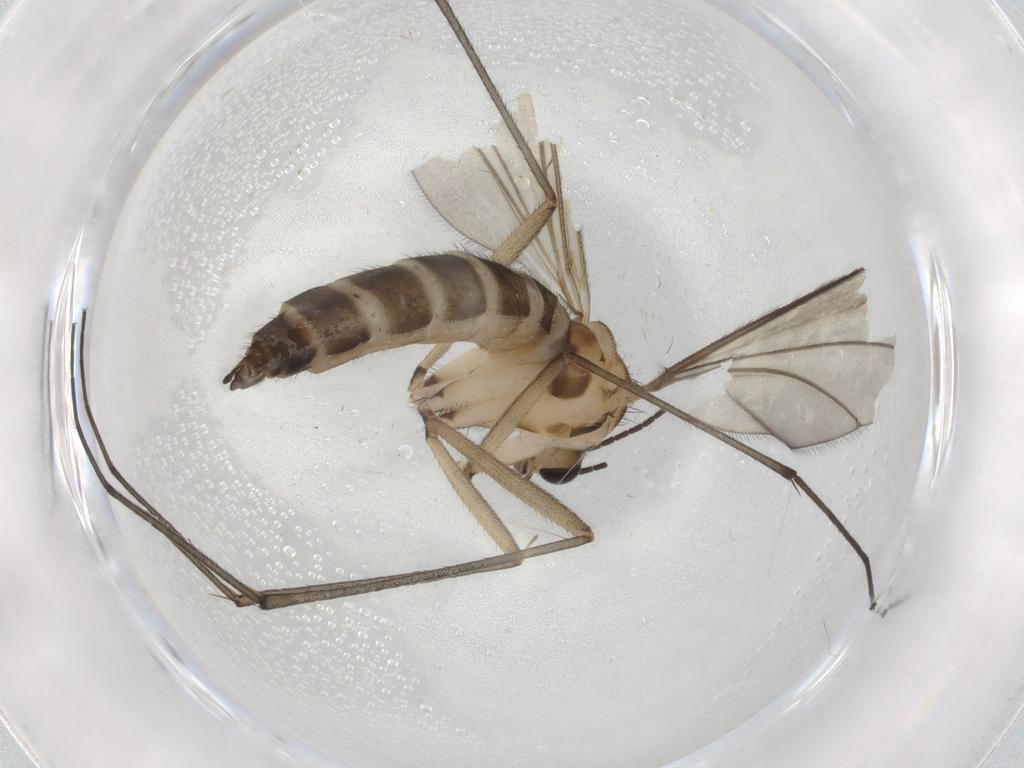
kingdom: Animalia
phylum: Arthropoda
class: Insecta
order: Diptera
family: Sciaridae
